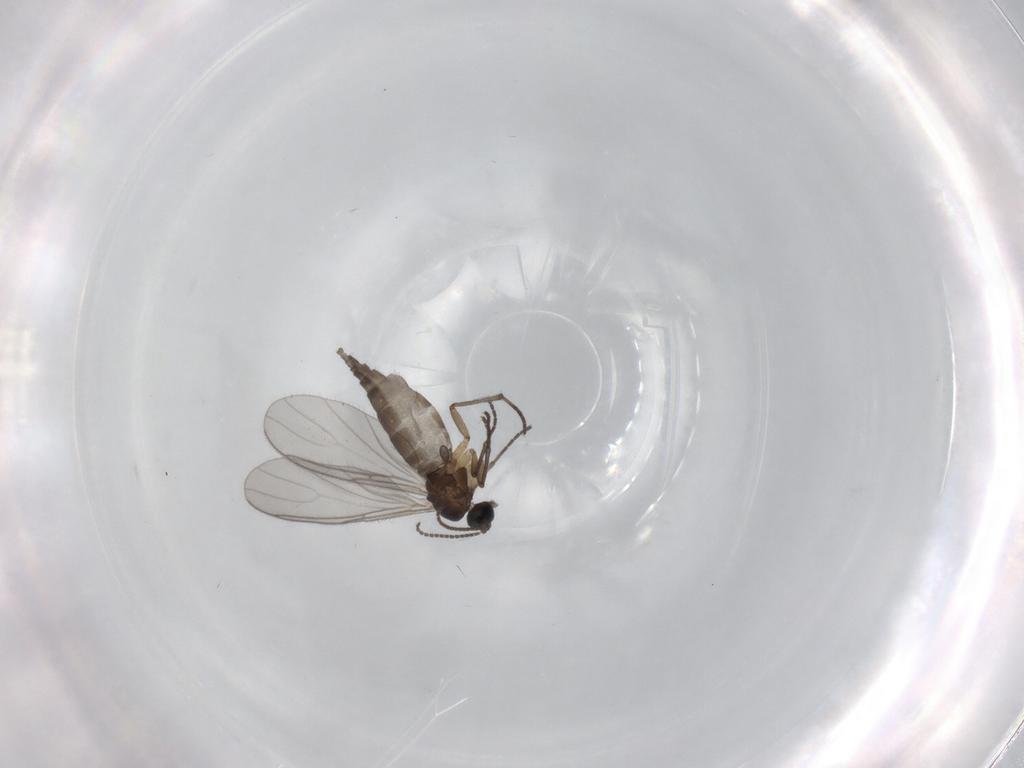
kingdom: Animalia
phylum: Arthropoda
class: Insecta
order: Diptera
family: Sciaridae
